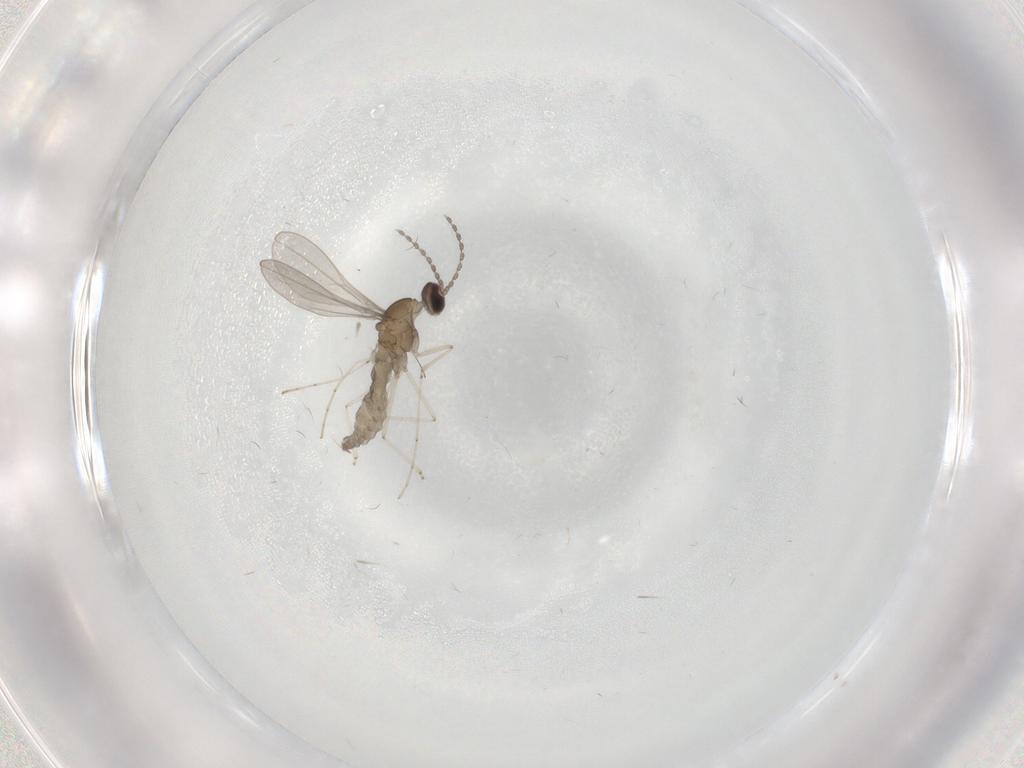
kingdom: Animalia
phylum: Arthropoda
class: Insecta
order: Diptera
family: Cecidomyiidae
